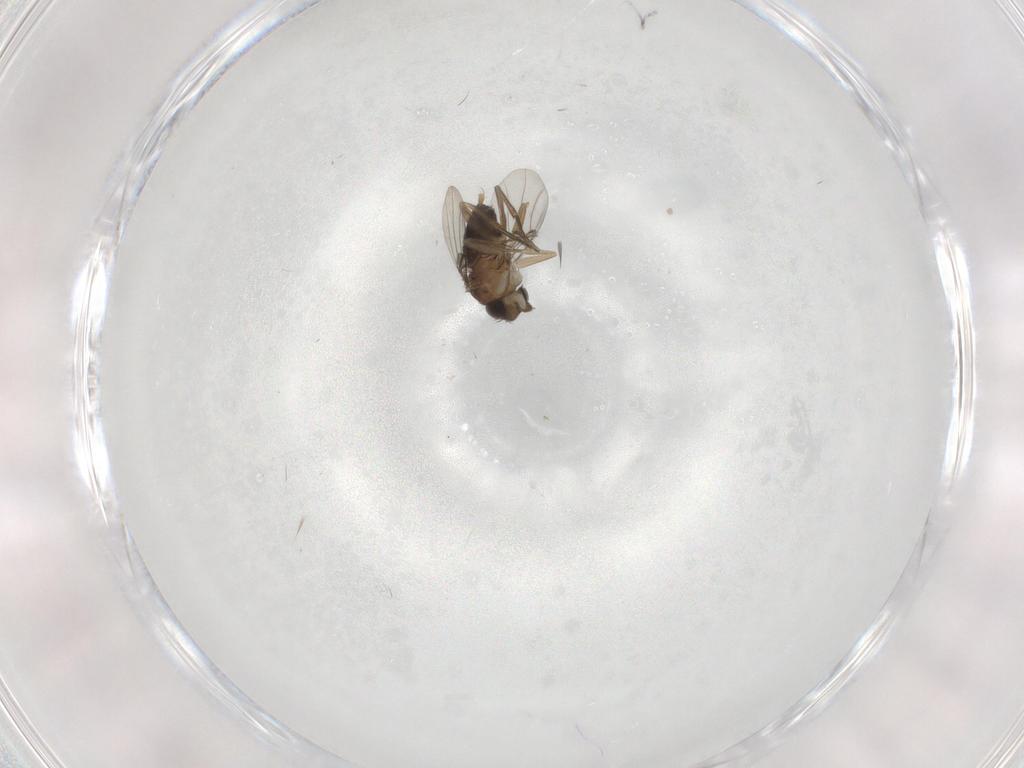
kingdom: Animalia
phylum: Arthropoda
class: Insecta
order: Diptera
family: Phoridae
